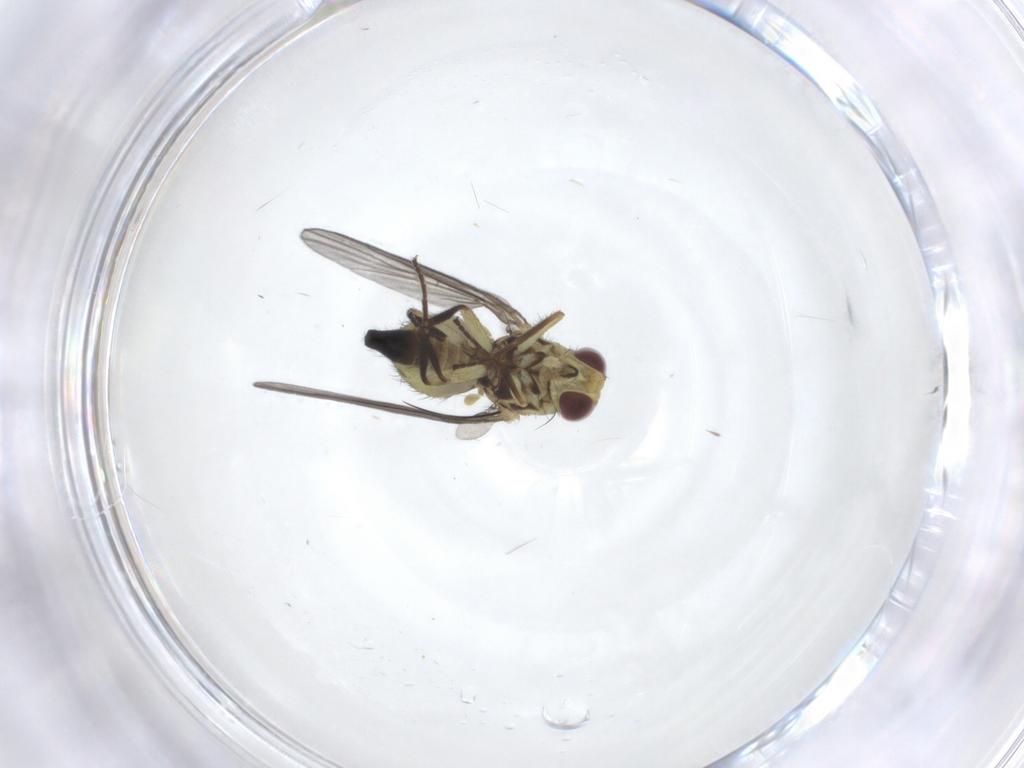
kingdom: Animalia
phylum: Arthropoda
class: Insecta
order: Diptera
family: Agromyzidae
